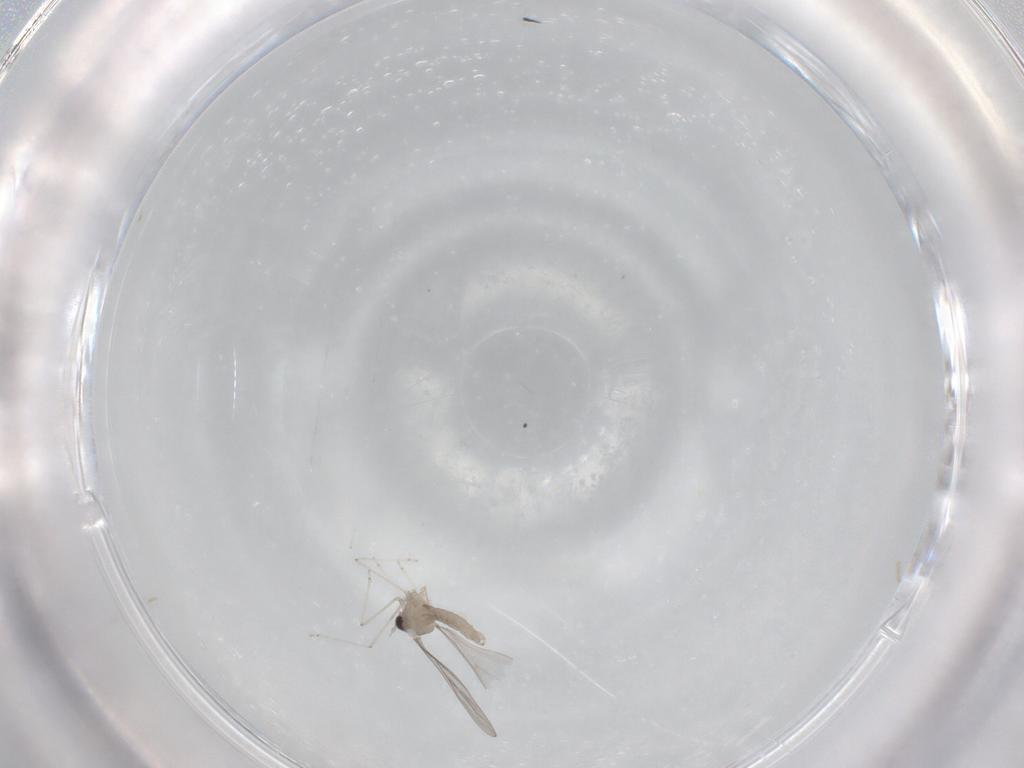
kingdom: Animalia
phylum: Arthropoda
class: Insecta
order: Diptera
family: Cecidomyiidae
